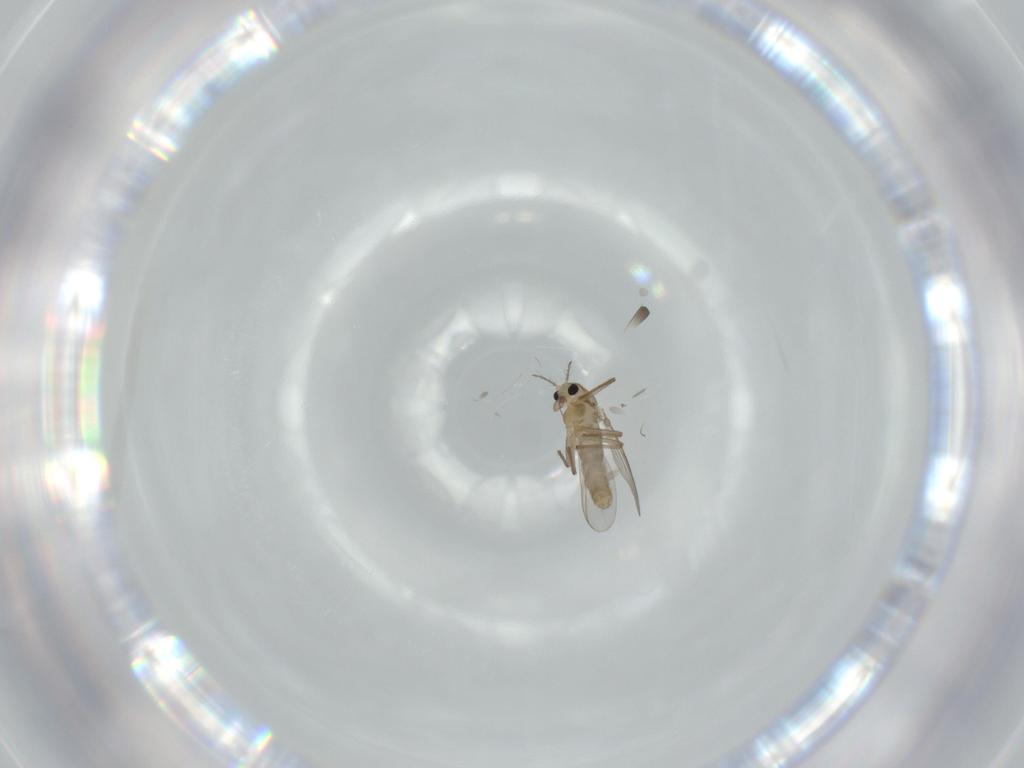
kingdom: Animalia
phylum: Arthropoda
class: Insecta
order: Diptera
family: Chironomidae
